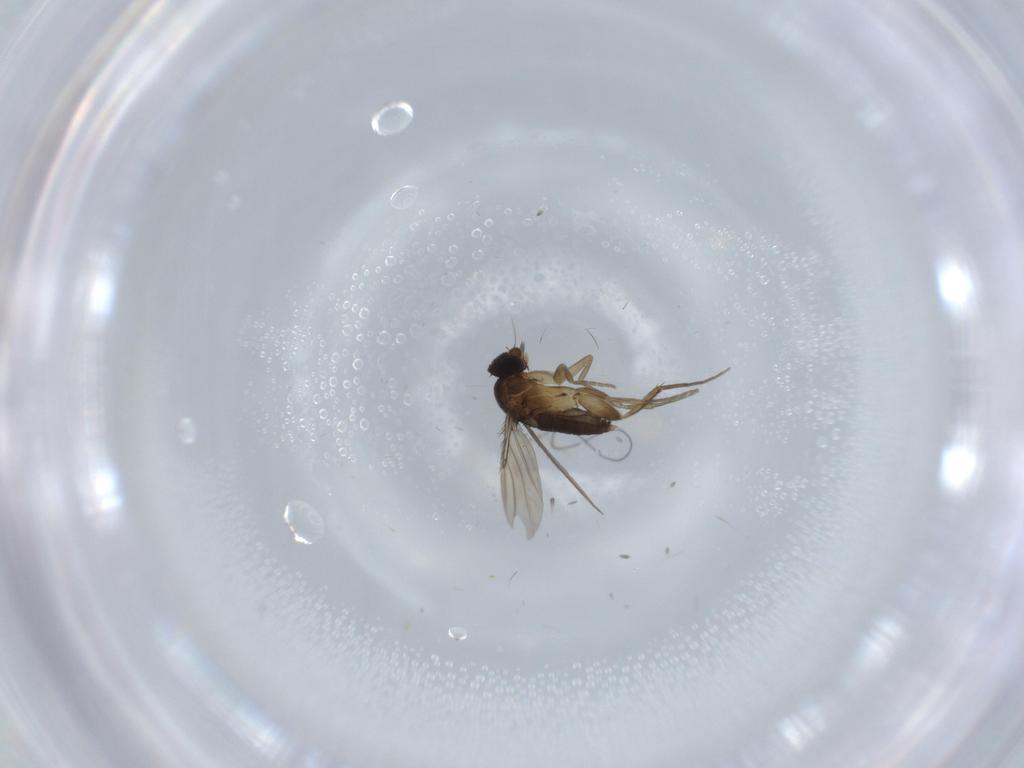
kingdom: Animalia
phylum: Arthropoda
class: Insecta
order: Diptera
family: Phoridae
